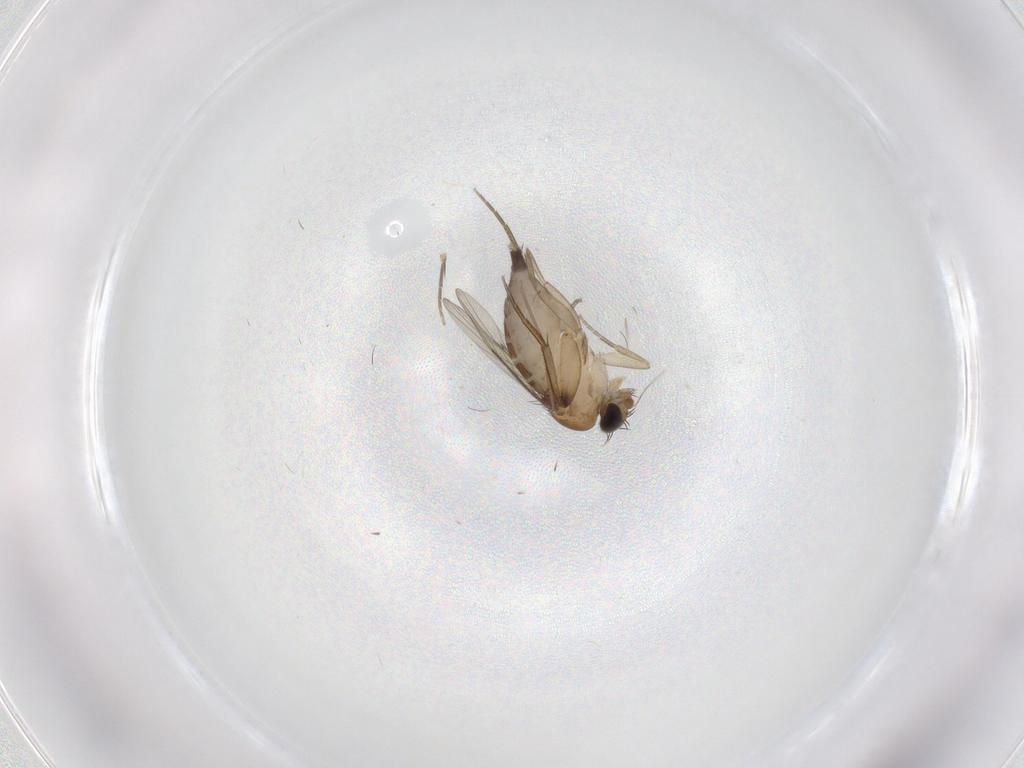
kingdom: Animalia
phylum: Arthropoda
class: Insecta
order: Diptera
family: Phoridae
